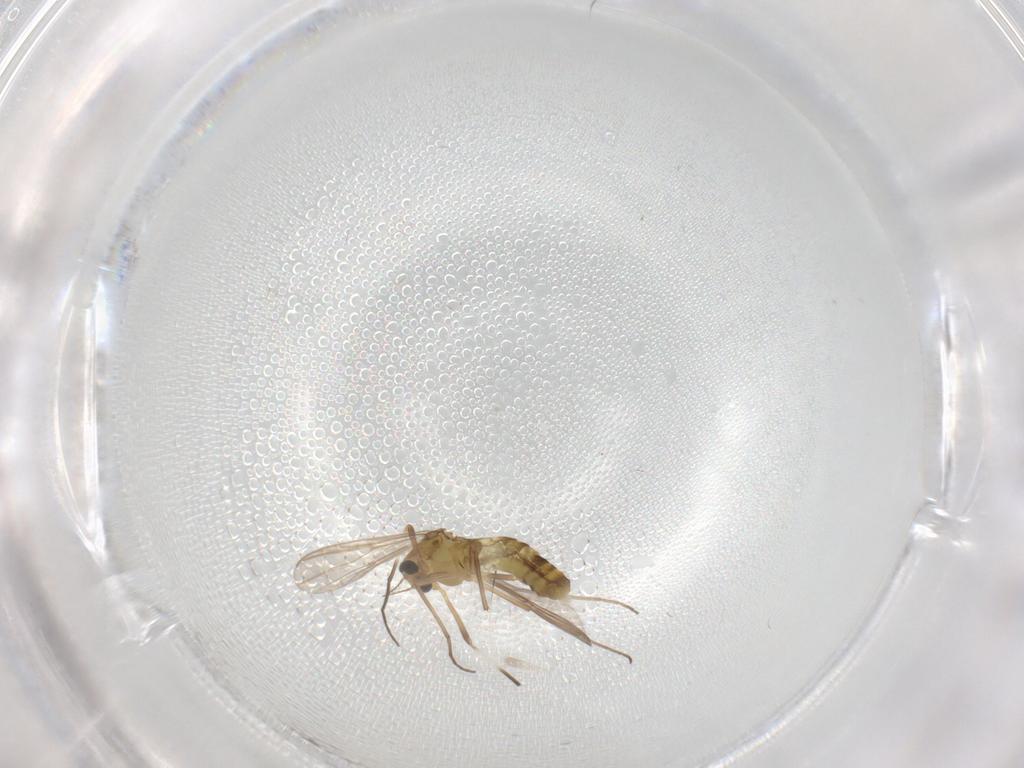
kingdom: Animalia
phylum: Arthropoda
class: Insecta
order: Diptera
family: Chironomidae
